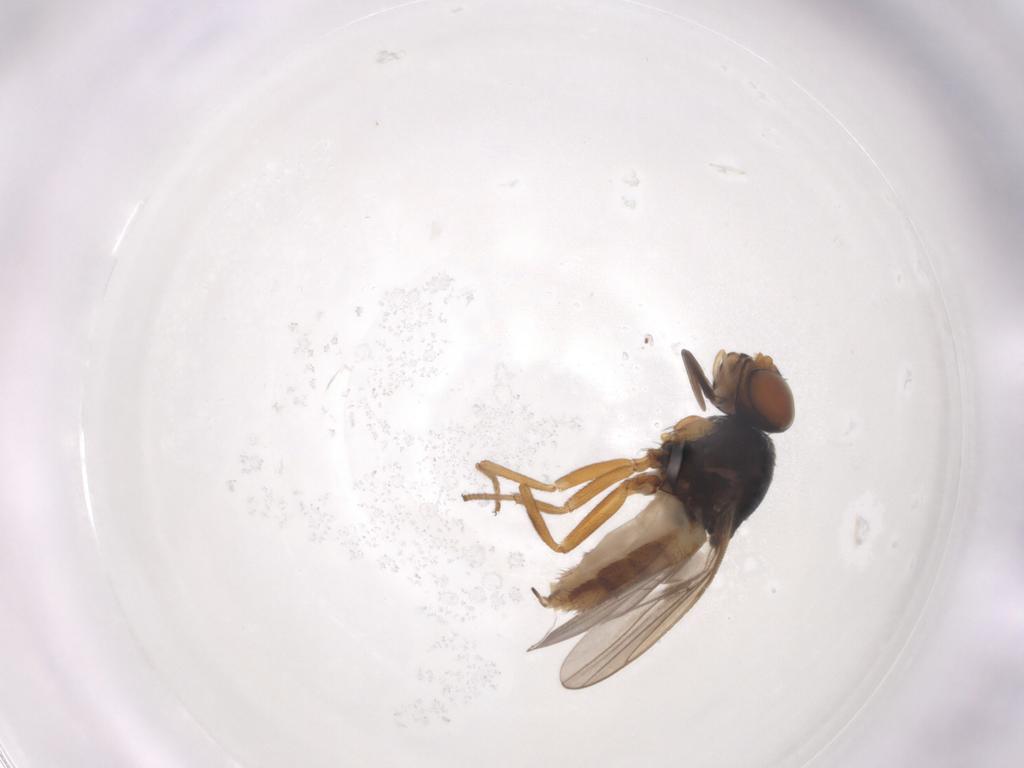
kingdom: Animalia
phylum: Arthropoda
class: Insecta
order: Diptera
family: Chloropidae
